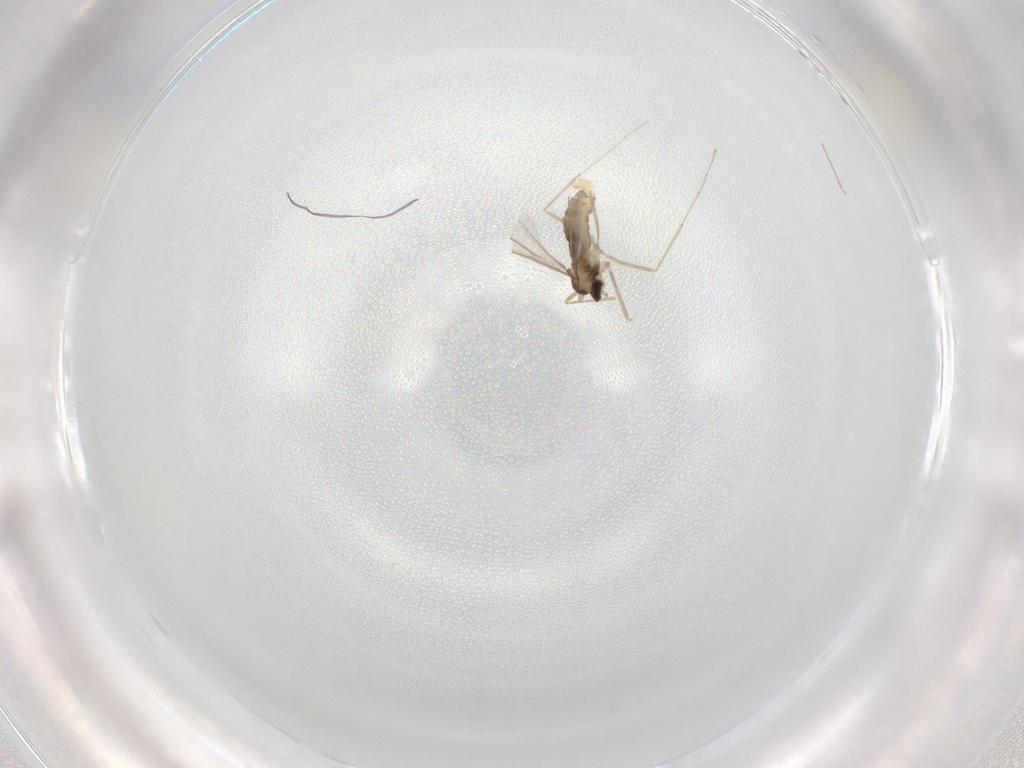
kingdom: Animalia
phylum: Arthropoda
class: Insecta
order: Diptera
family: Cecidomyiidae
